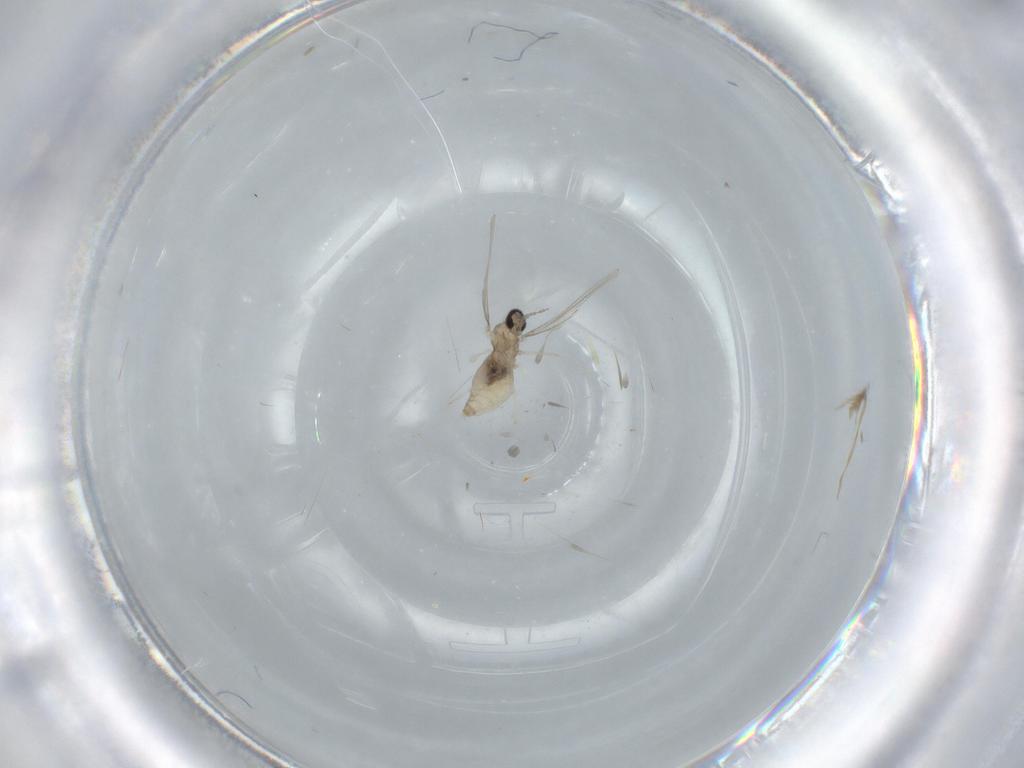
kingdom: Animalia
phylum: Arthropoda
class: Insecta
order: Diptera
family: Cecidomyiidae
